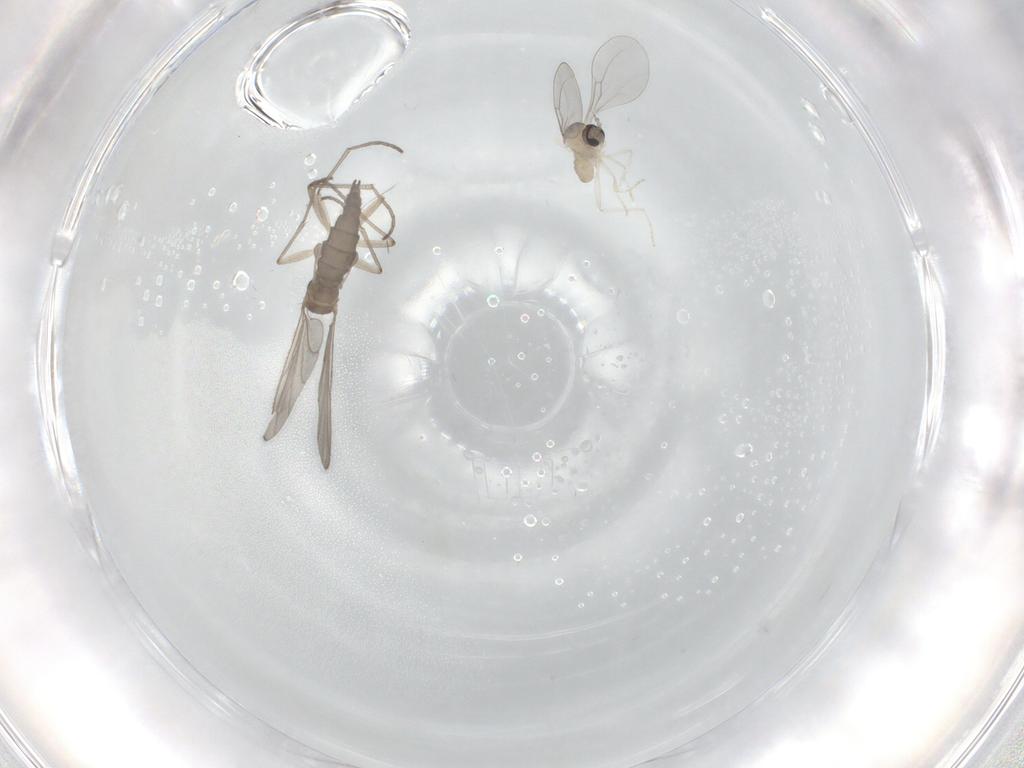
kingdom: Animalia
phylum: Arthropoda
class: Insecta
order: Diptera
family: Cecidomyiidae
